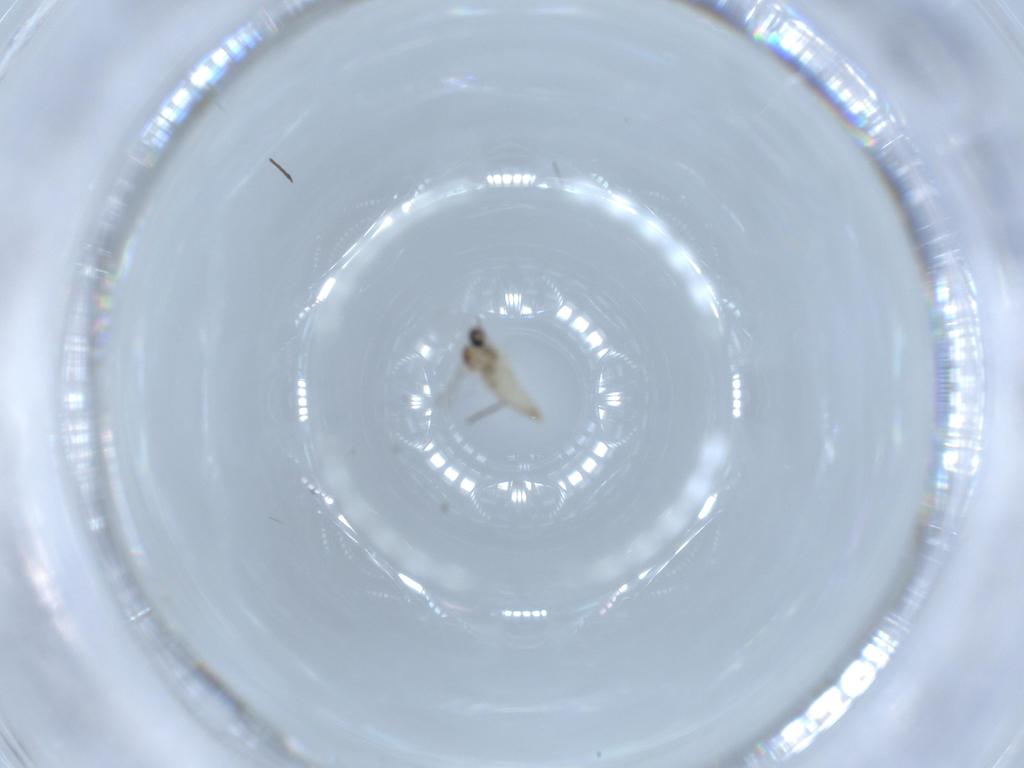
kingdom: Animalia
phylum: Arthropoda
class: Insecta
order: Diptera
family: Chironomidae
